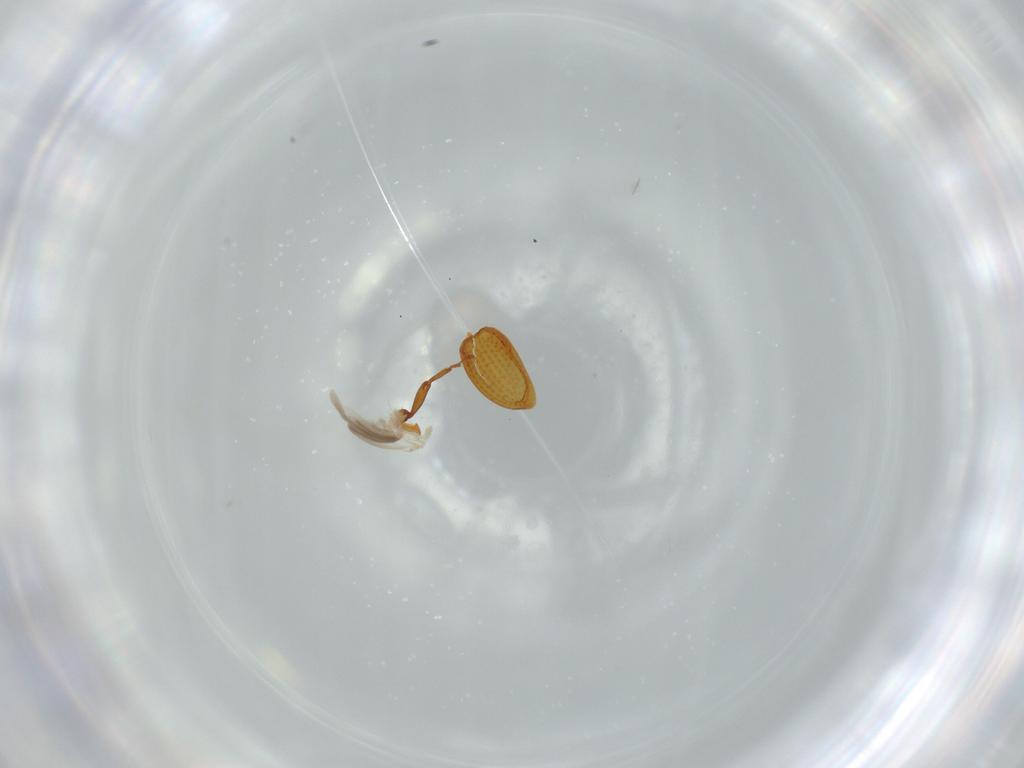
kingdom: Animalia
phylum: Arthropoda
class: Insecta
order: Coleoptera
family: Curculionidae
